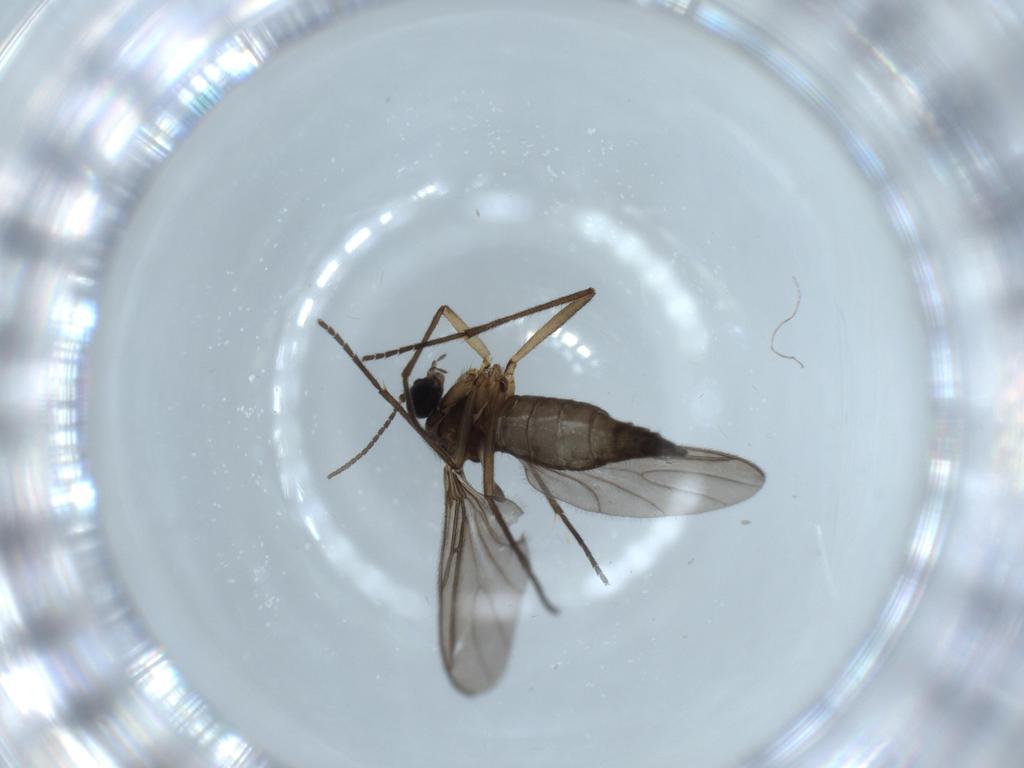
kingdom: Animalia
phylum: Arthropoda
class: Insecta
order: Diptera
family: Sciaridae
